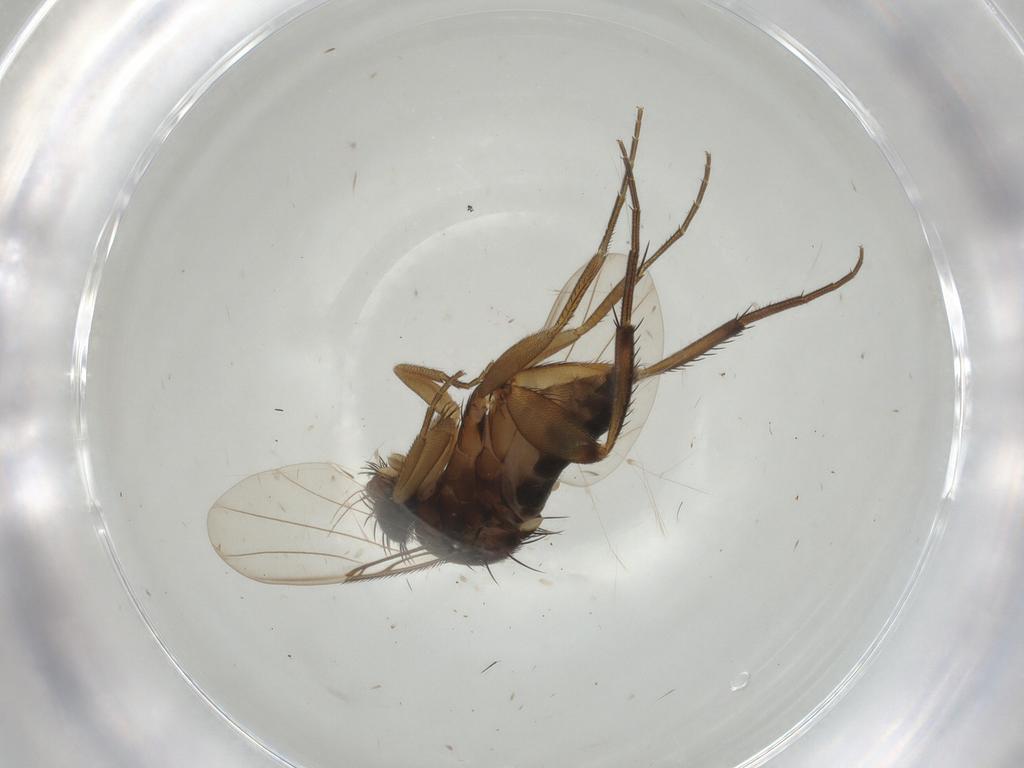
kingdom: Animalia
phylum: Arthropoda
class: Insecta
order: Diptera
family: Phoridae
